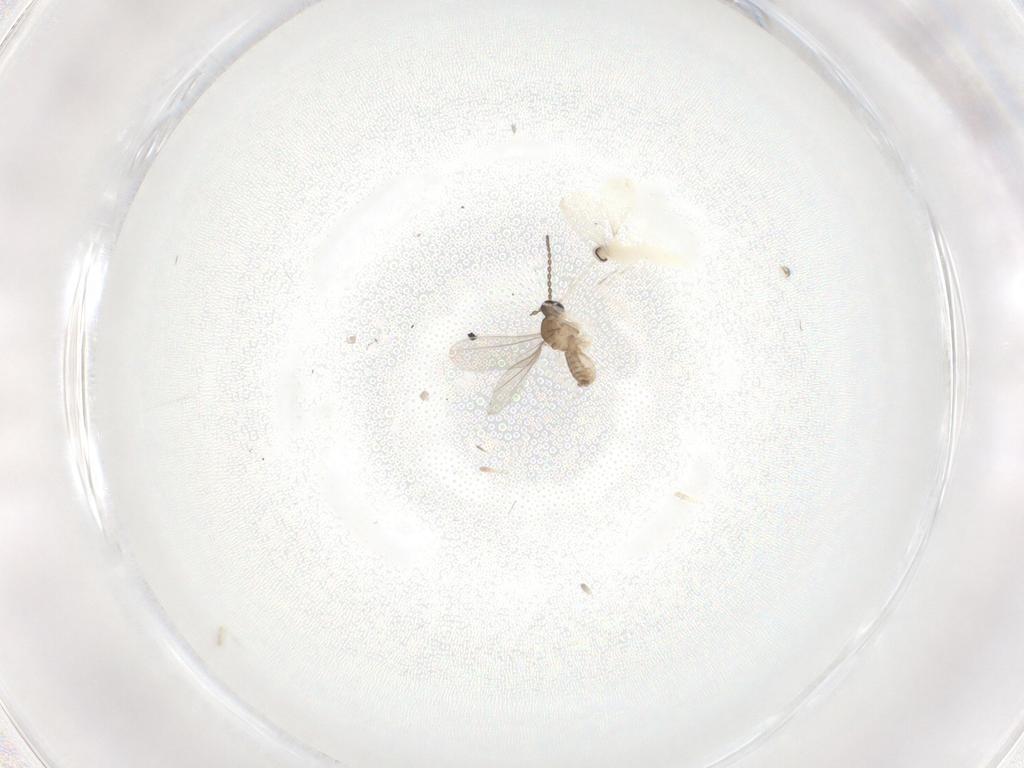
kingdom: Animalia
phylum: Arthropoda
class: Insecta
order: Diptera
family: Cecidomyiidae
